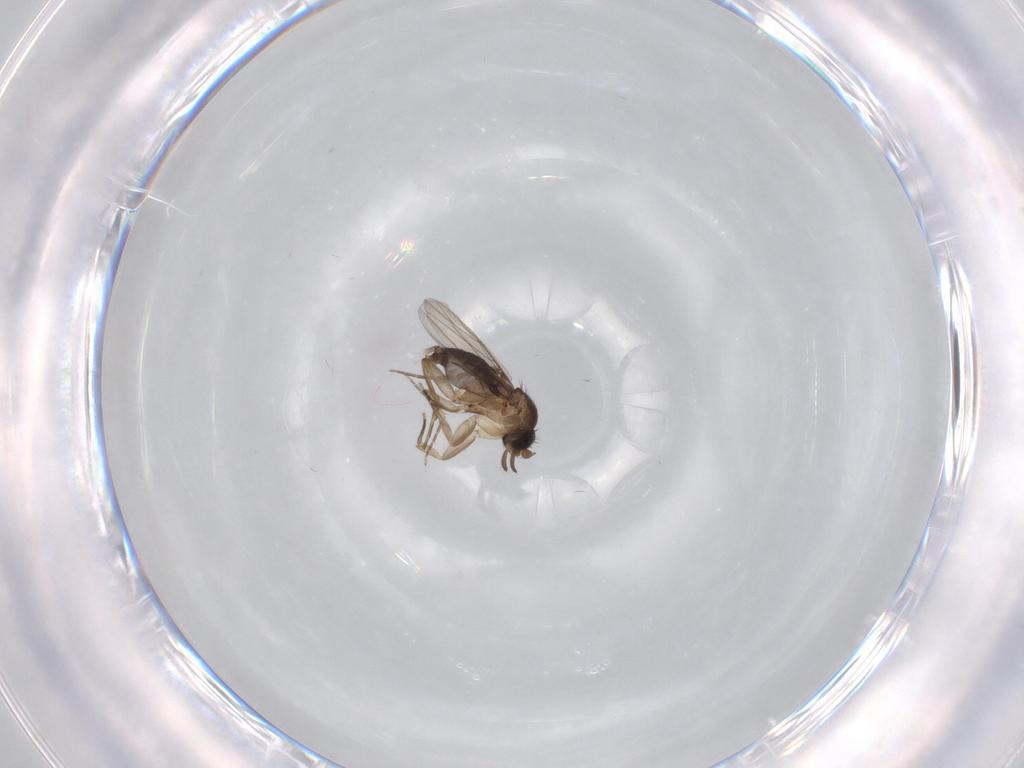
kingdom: Animalia
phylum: Arthropoda
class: Insecta
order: Diptera
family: Phoridae
